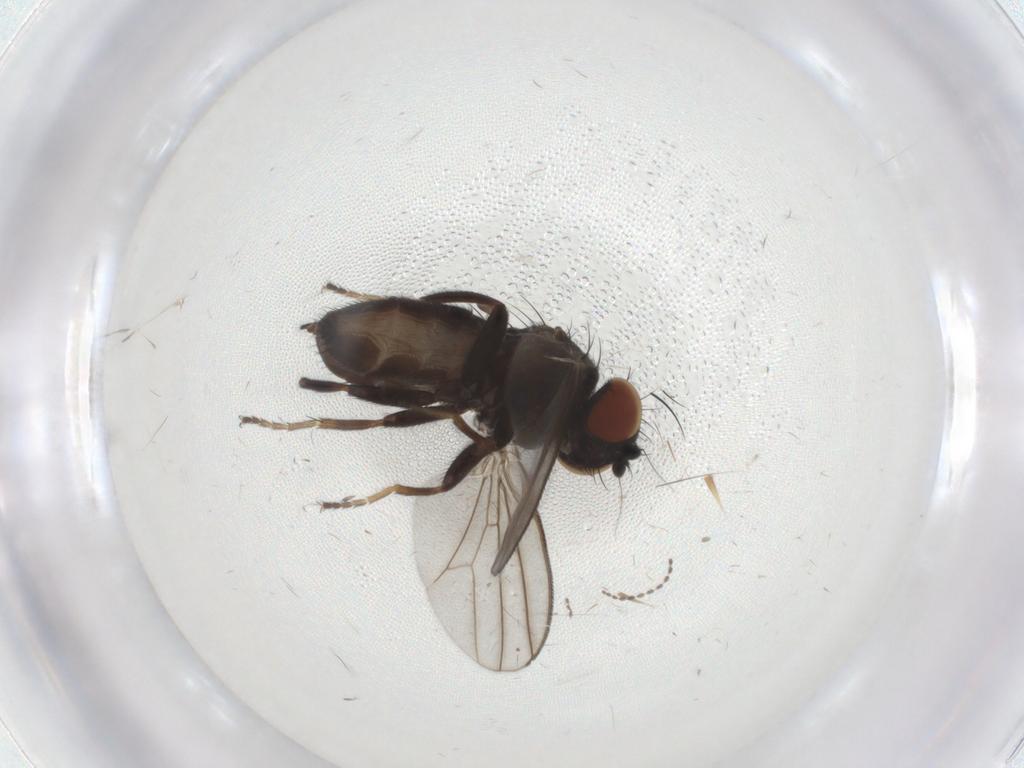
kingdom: Animalia
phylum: Arthropoda
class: Insecta
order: Diptera
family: Milichiidae
